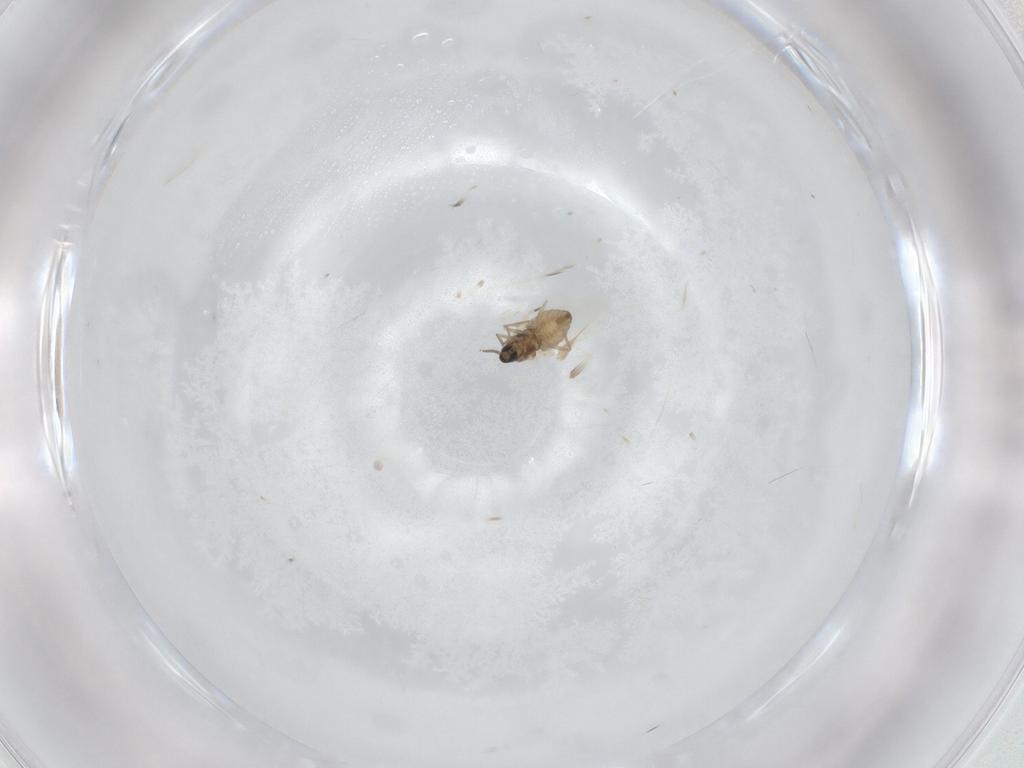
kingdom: Animalia
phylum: Arthropoda
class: Insecta
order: Diptera
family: Cecidomyiidae
